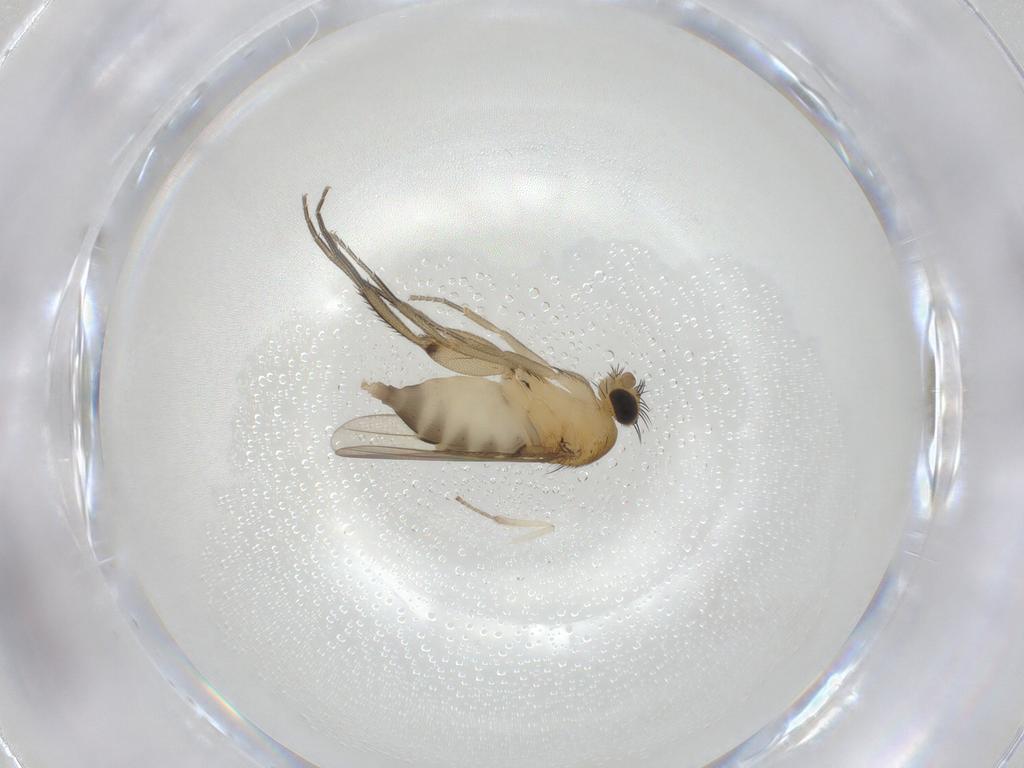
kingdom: Animalia
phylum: Arthropoda
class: Insecta
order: Diptera
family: Phoridae
